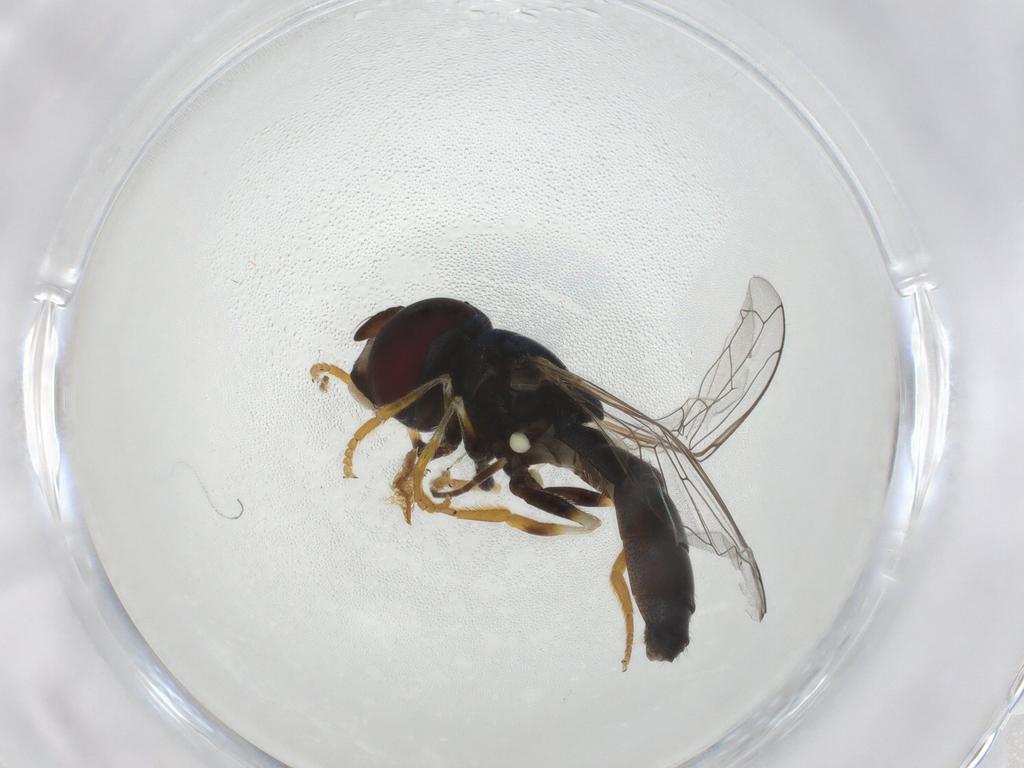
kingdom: Animalia
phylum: Arthropoda
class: Insecta
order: Diptera
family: Syrphidae
